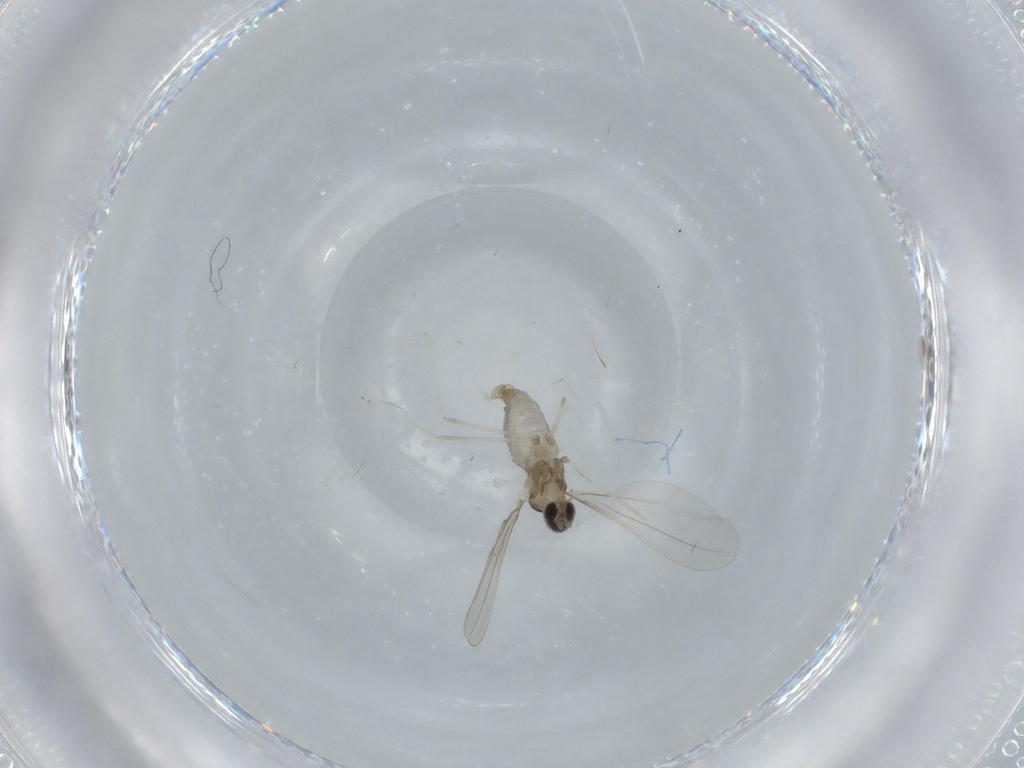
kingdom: Animalia
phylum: Arthropoda
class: Insecta
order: Diptera
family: Cecidomyiidae
